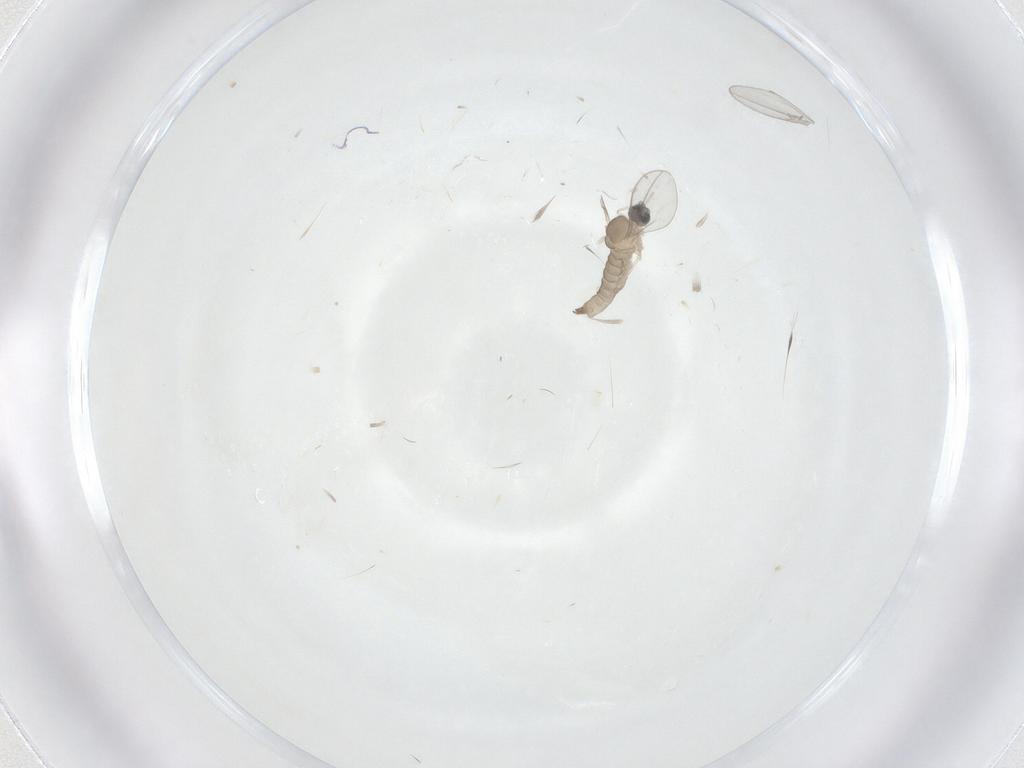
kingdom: Animalia
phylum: Arthropoda
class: Insecta
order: Diptera
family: Cecidomyiidae
